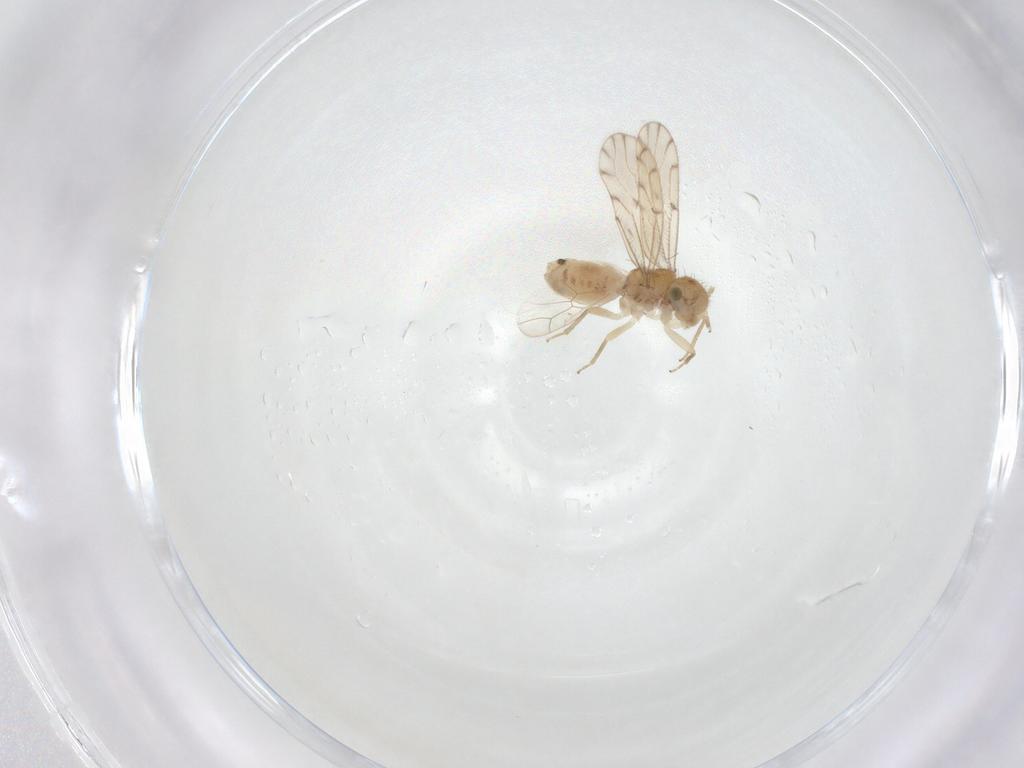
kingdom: Animalia
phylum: Arthropoda
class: Insecta
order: Psocodea
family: Ectopsocidae
